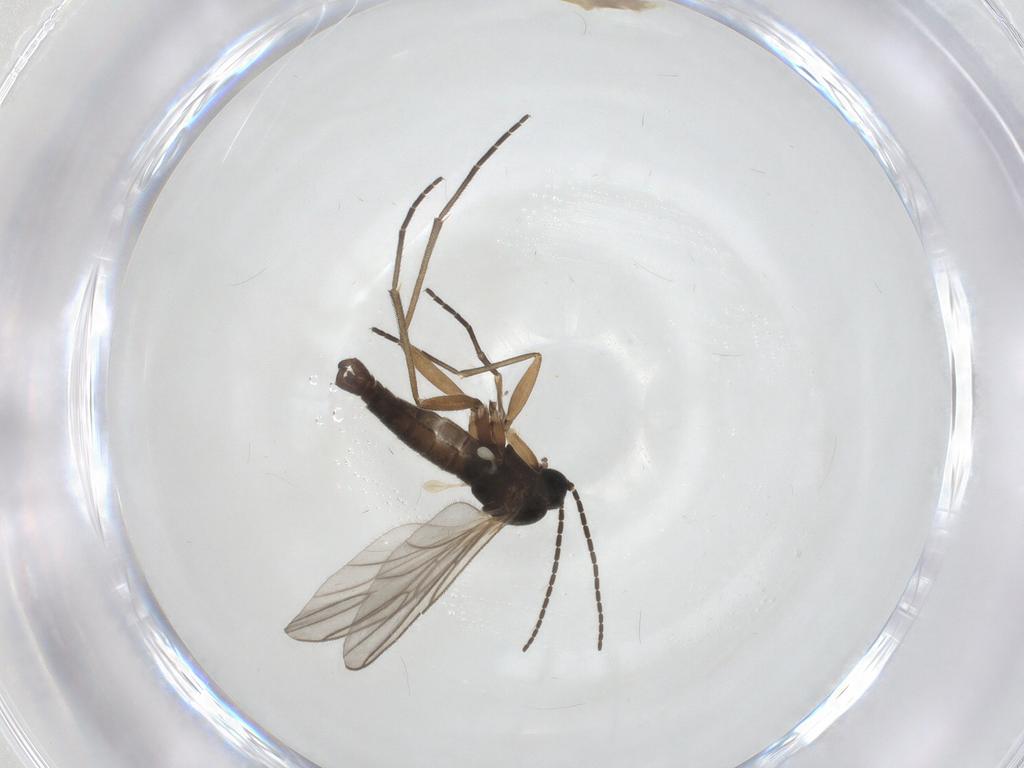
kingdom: Animalia
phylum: Arthropoda
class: Insecta
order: Diptera
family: Sciaridae
